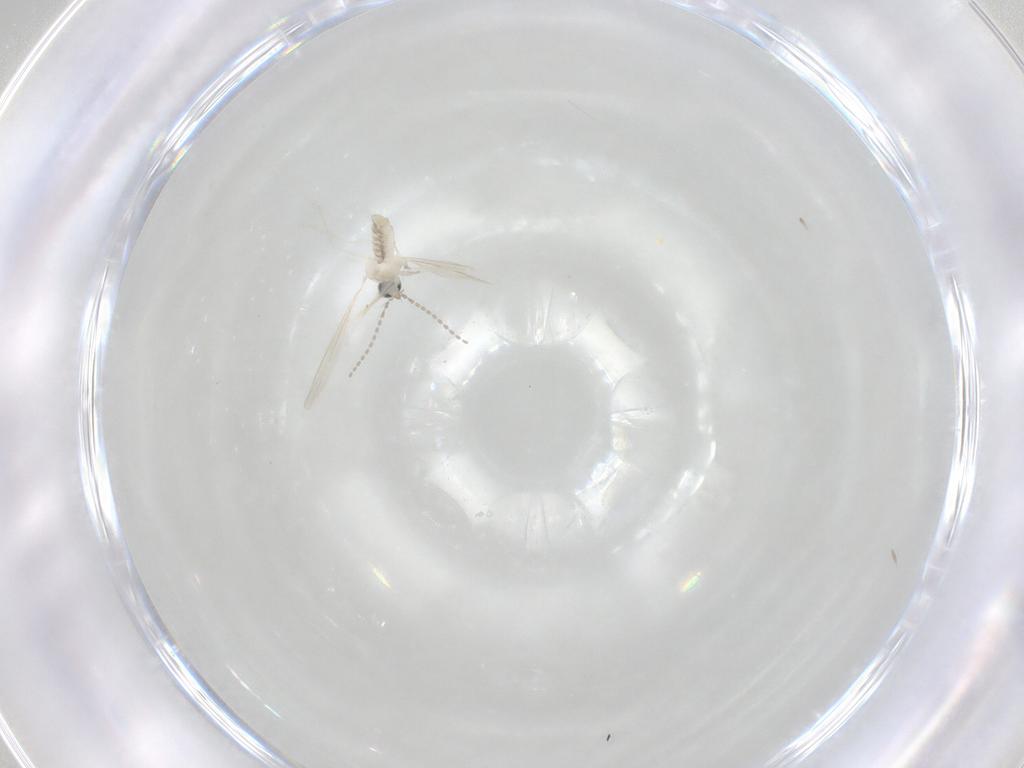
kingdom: Animalia
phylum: Arthropoda
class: Insecta
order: Diptera
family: Cecidomyiidae
